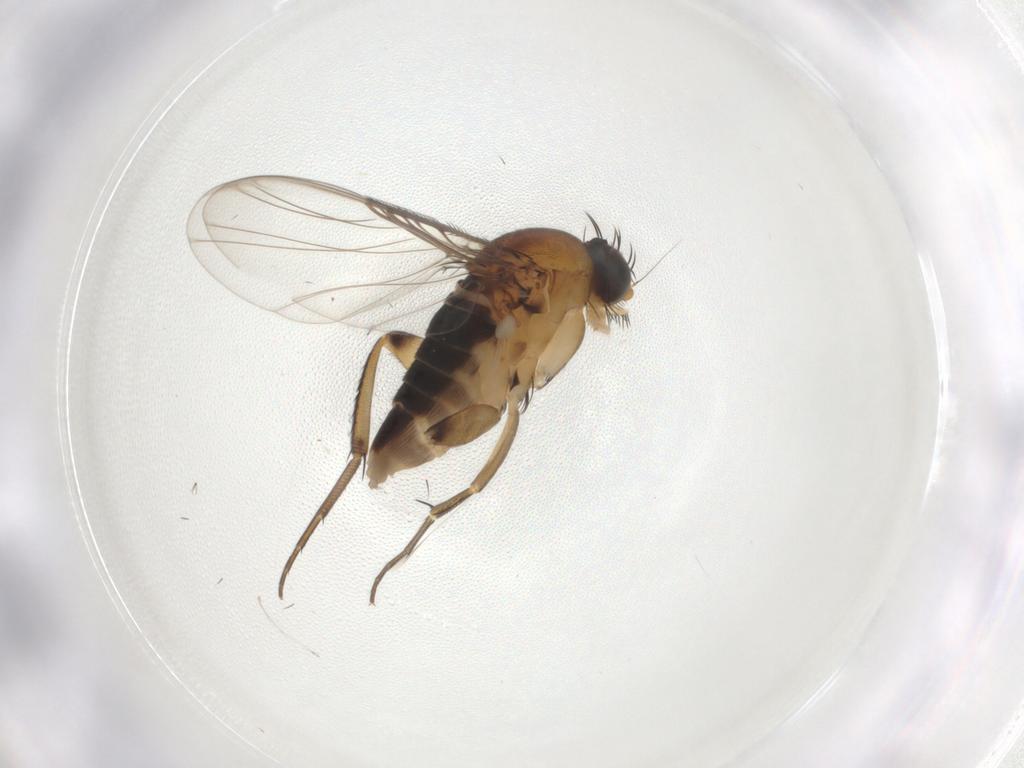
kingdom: Animalia
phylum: Arthropoda
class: Insecta
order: Diptera
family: Phoridae
